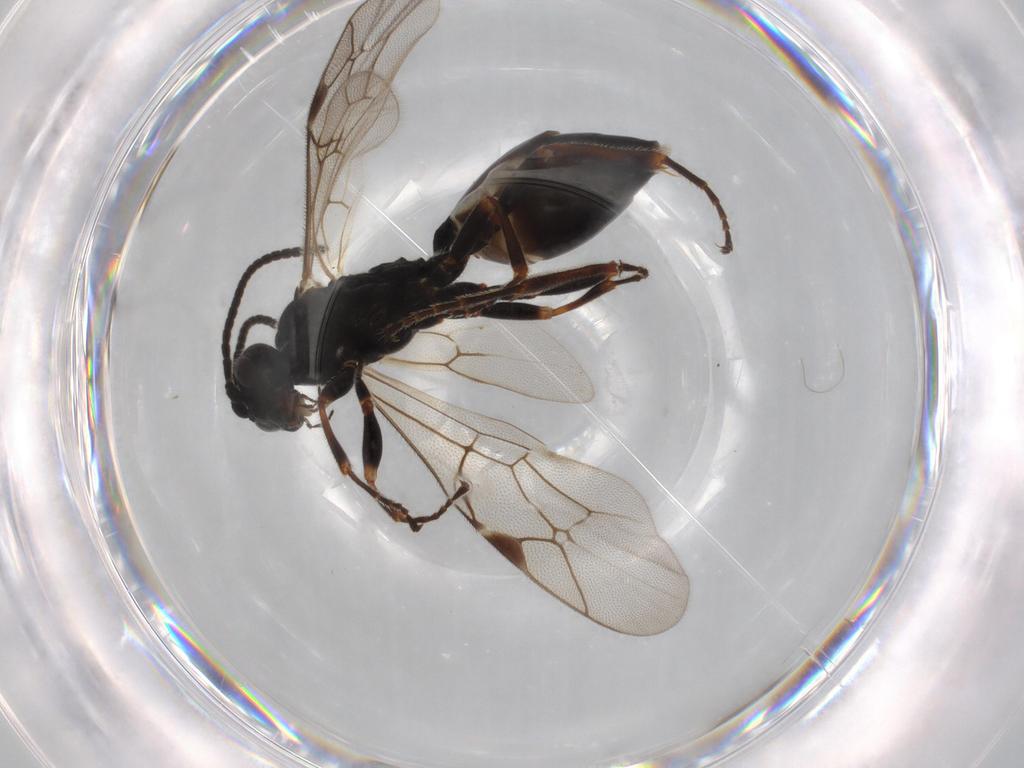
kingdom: Animalia
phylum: Arthropoda
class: Insecta
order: Hymenoptera
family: Ichneumonidae
